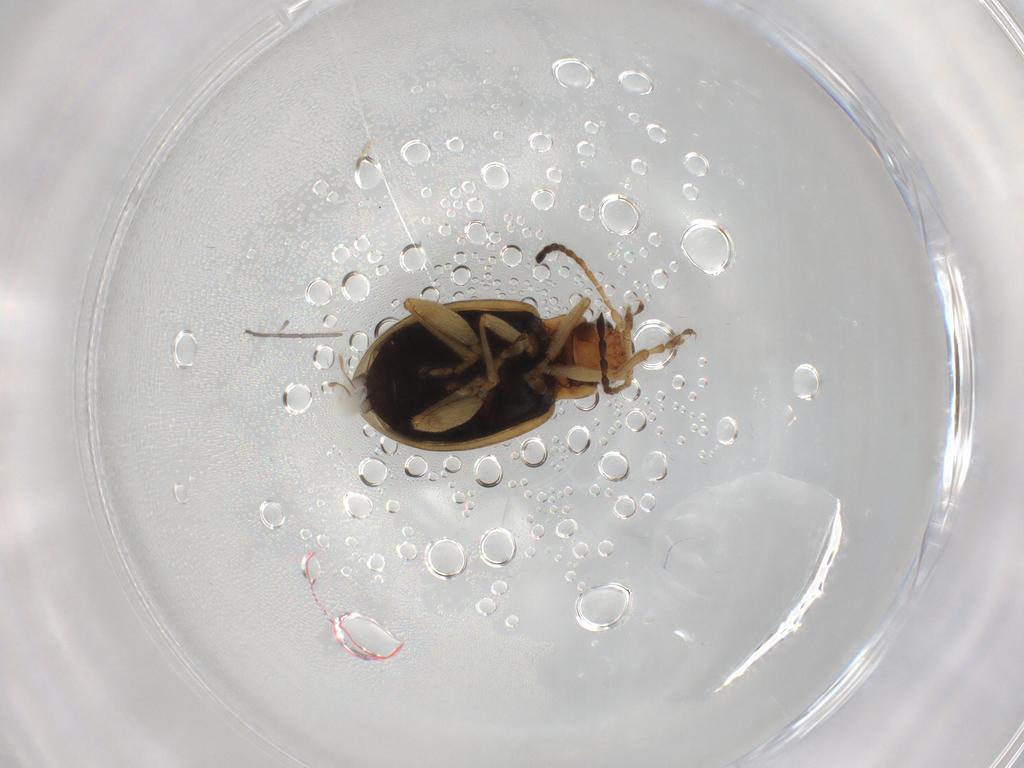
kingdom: Animalia
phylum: Arthropoda
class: Insecta
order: Coleoptera
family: Chrysomelidae
